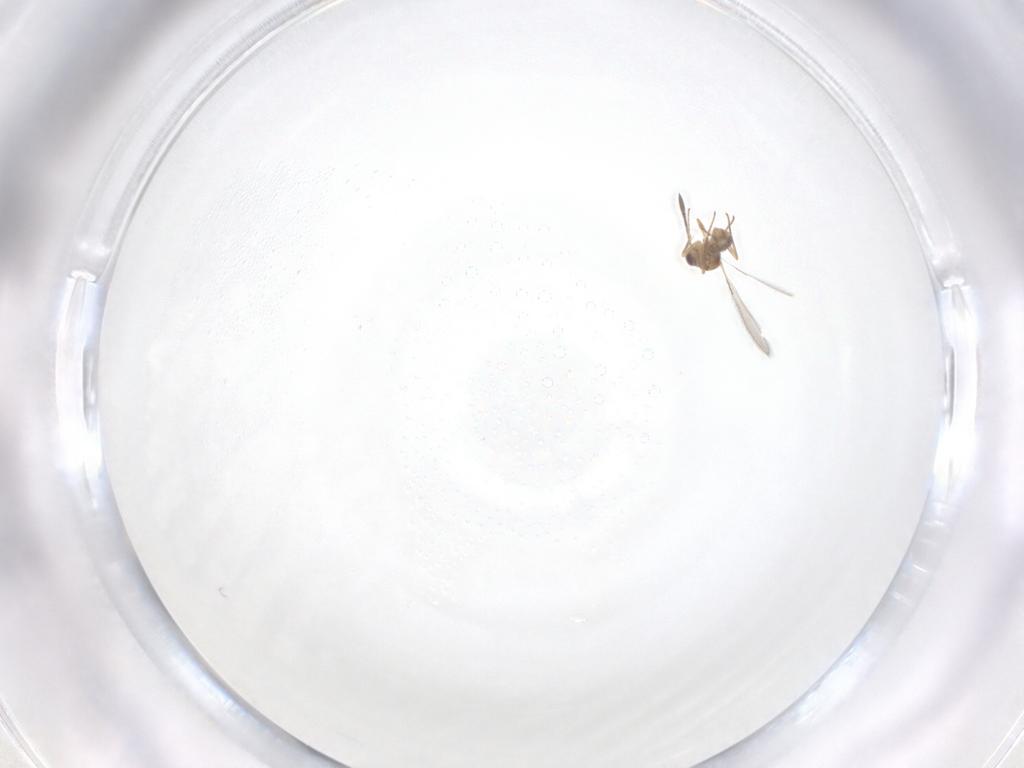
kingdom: Animalia
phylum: Arthropoda
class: Insecta
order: Hymenoptera
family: Mymaridae
